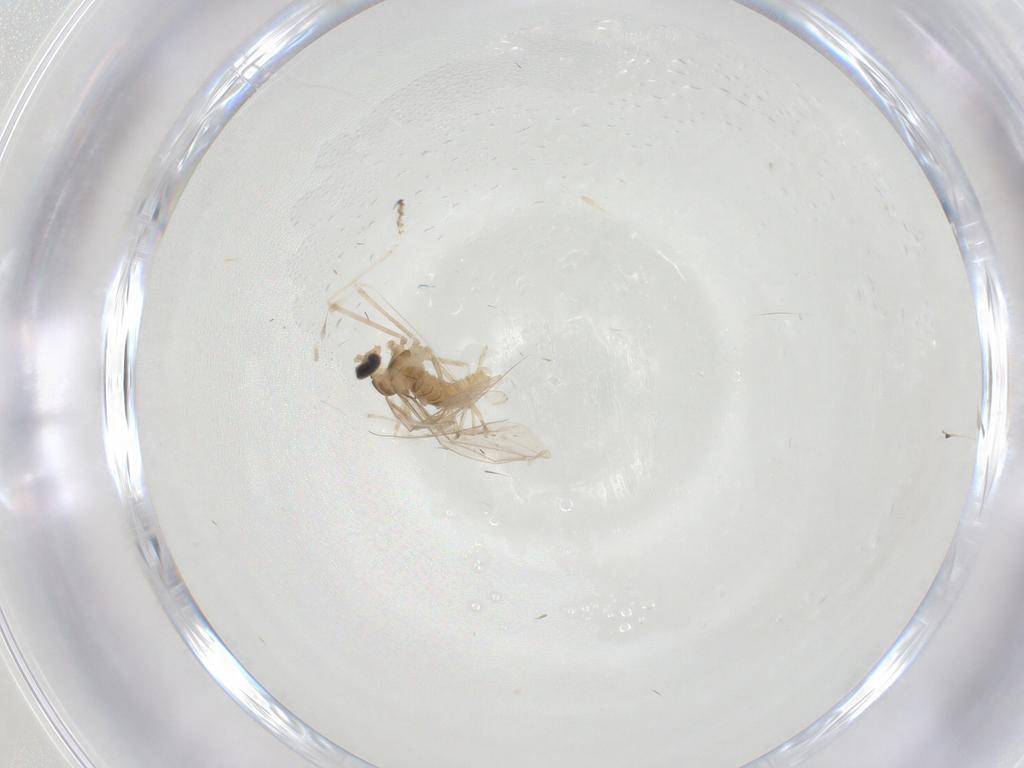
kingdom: Animalia
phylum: Arthropoda
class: Insecta
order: Diptera
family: Cecidomyiidae
